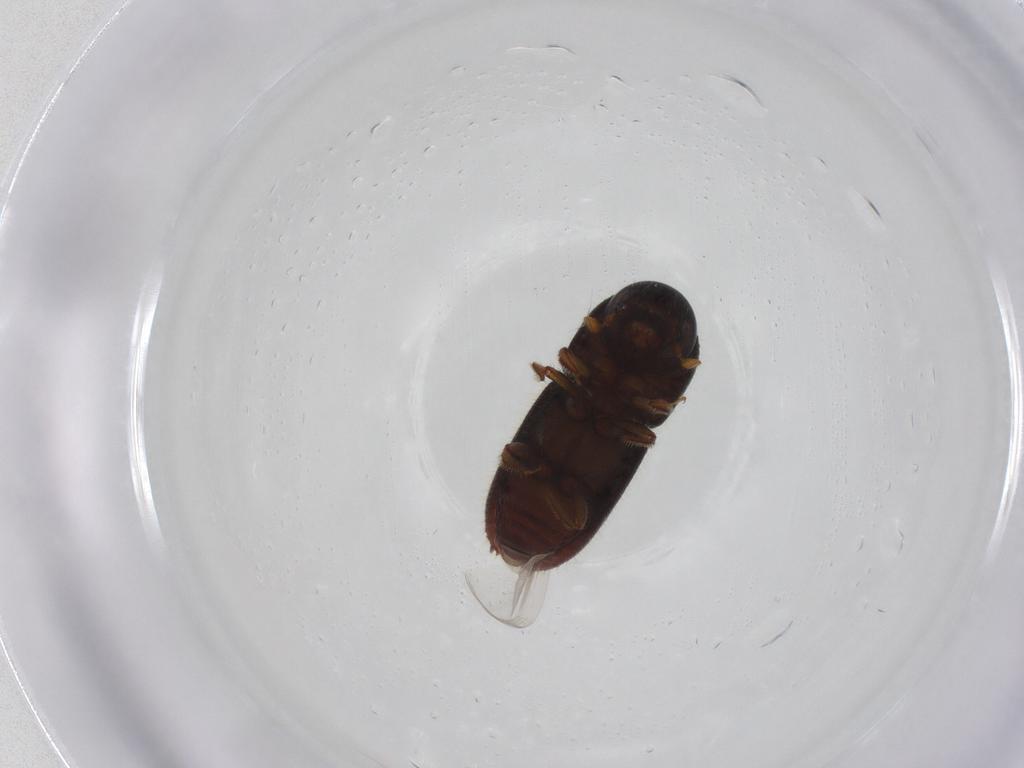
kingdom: Animalia
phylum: Arthropoda
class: Insecta
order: Coleoptera
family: Curculionidae
